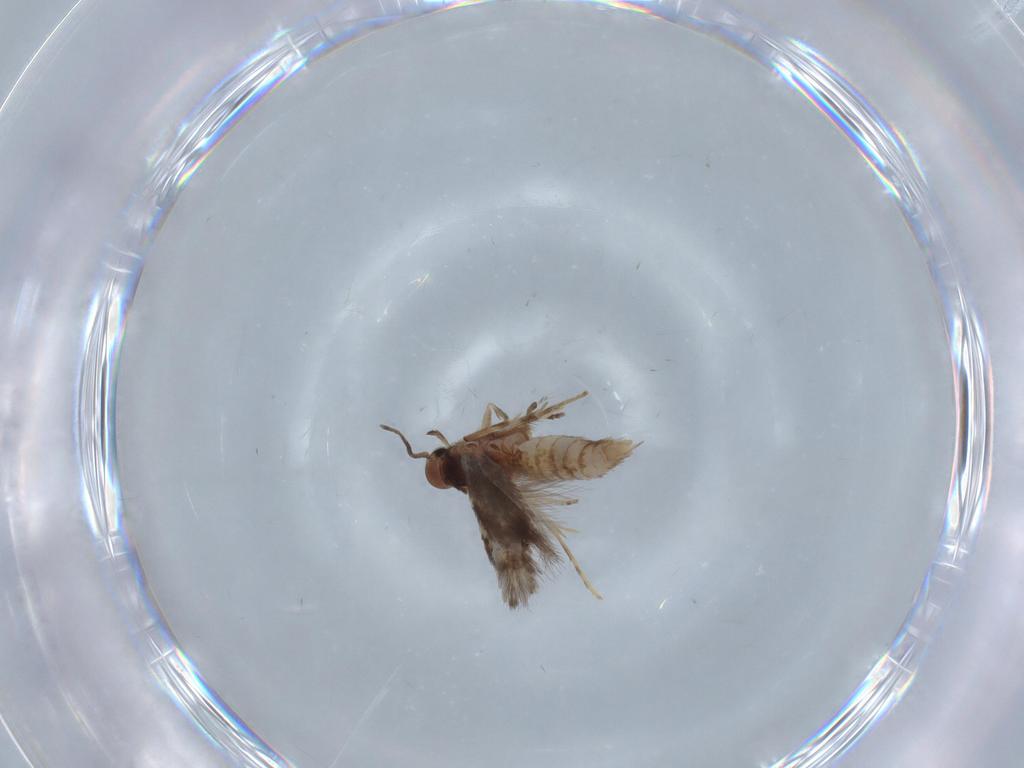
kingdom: Animalia
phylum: Arthropoda
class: Insecta
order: Lepidoptera
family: Elachistidae
